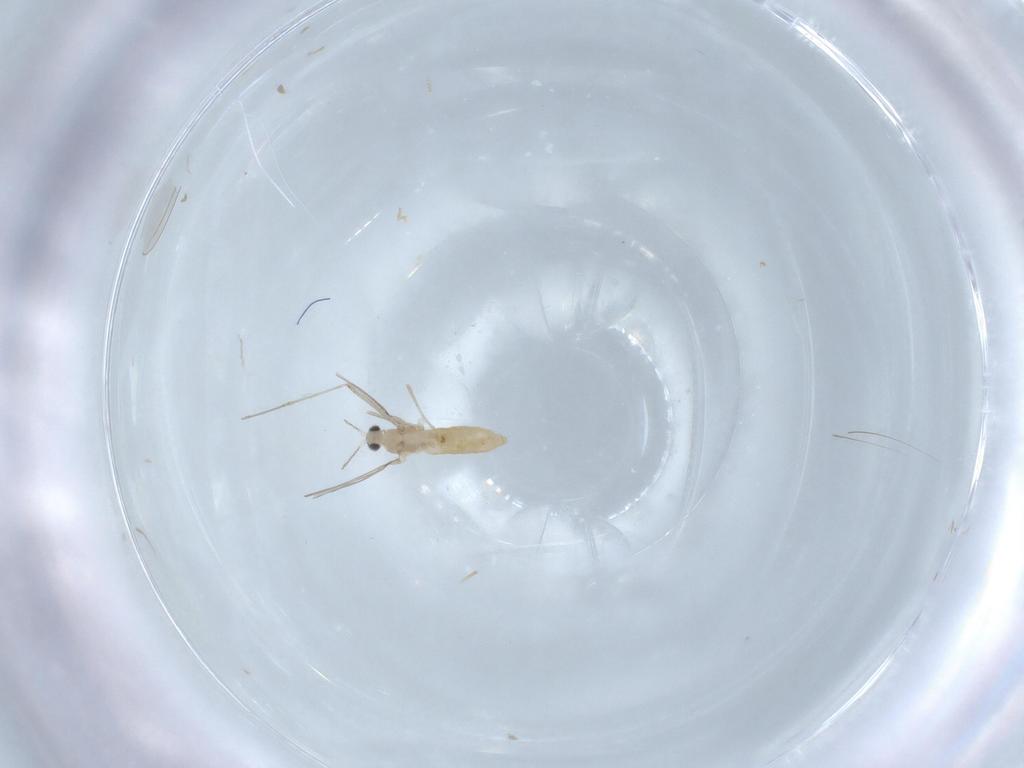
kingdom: Animalia
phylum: Arthropoda
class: Insecta
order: Diptera
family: Cecidomyiidae
